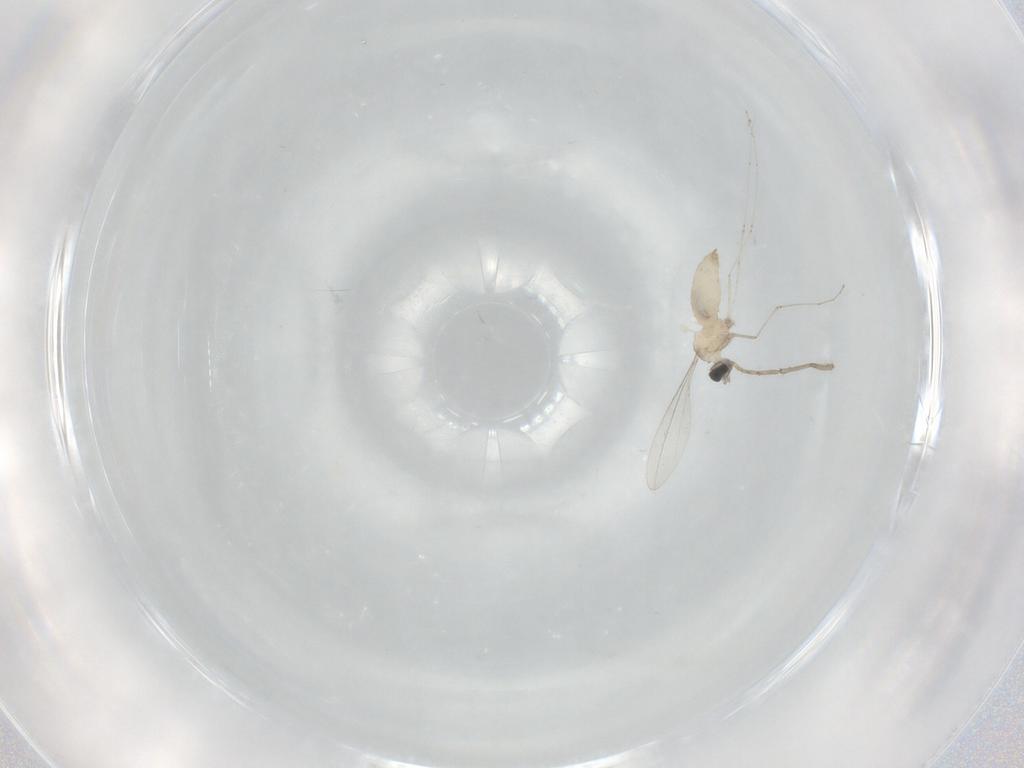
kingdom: Animalia
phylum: Arthropoda
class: Insecta
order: Diptera
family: Cecidomyiidae
